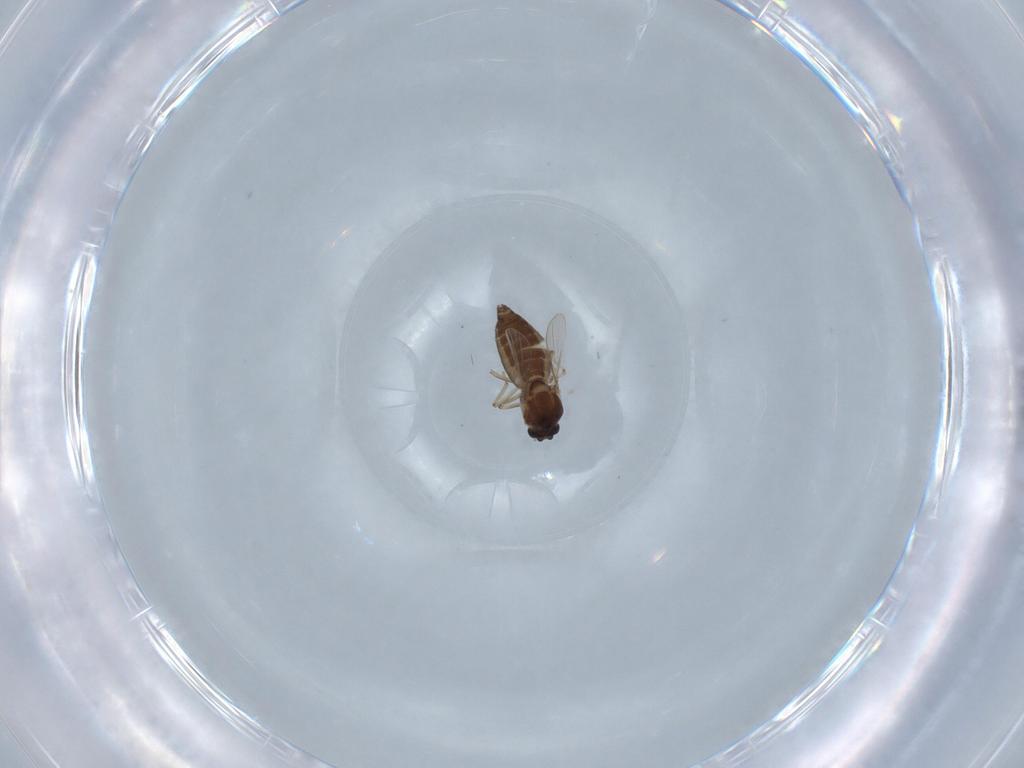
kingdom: Animalia
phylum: Arthropoda
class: Insecta
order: Diptera
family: Ceratopogonidae
